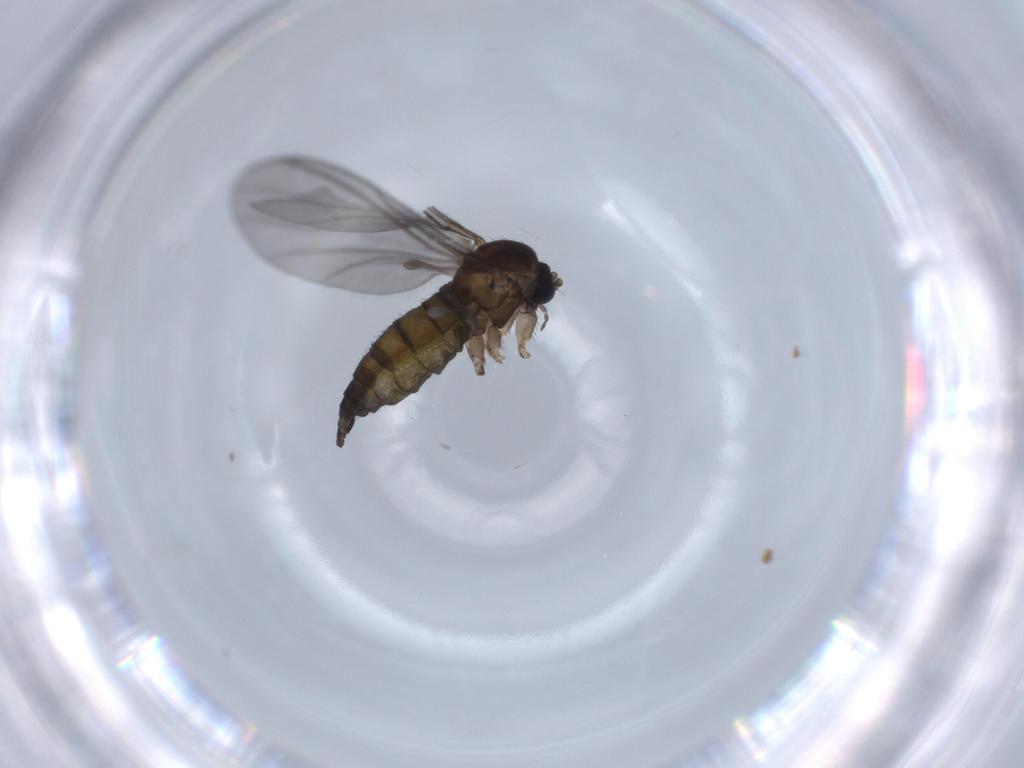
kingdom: Animalia
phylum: Arthropoda
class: Insecta
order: Diptera
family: Sciaridae
